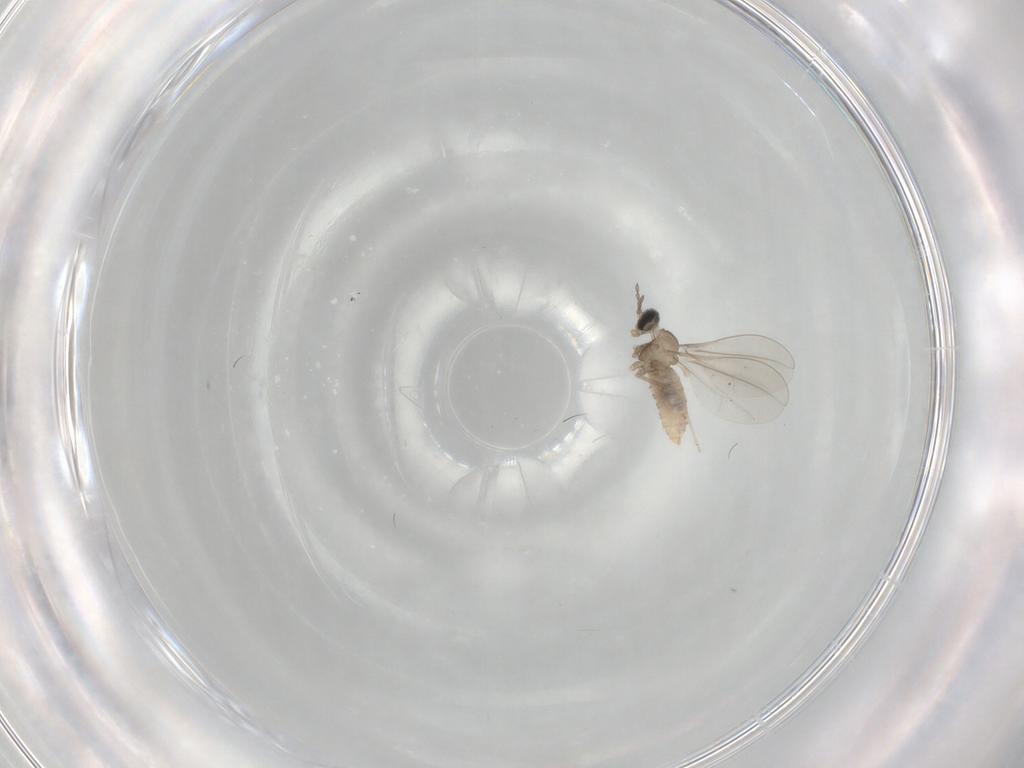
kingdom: Animalia
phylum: Arthropoda
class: Insecta
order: Diptera
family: Cecidomyiidae
